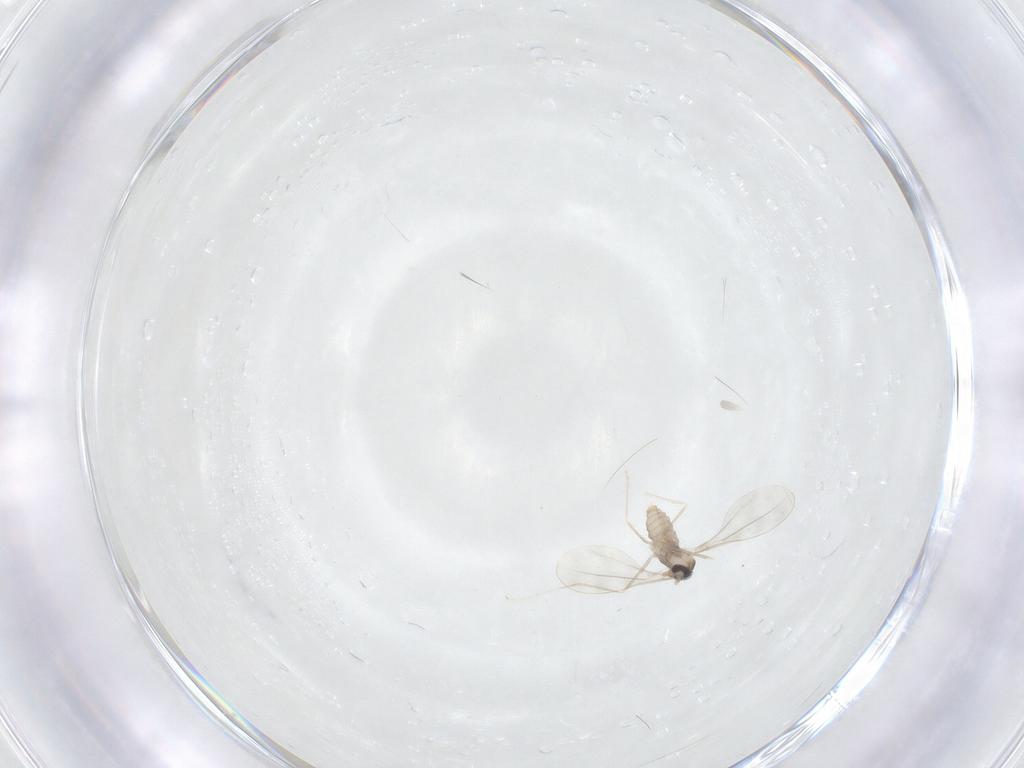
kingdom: Animalia
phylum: Arthropoda
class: Insecta
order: Diptera
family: Cecidomyiidae
